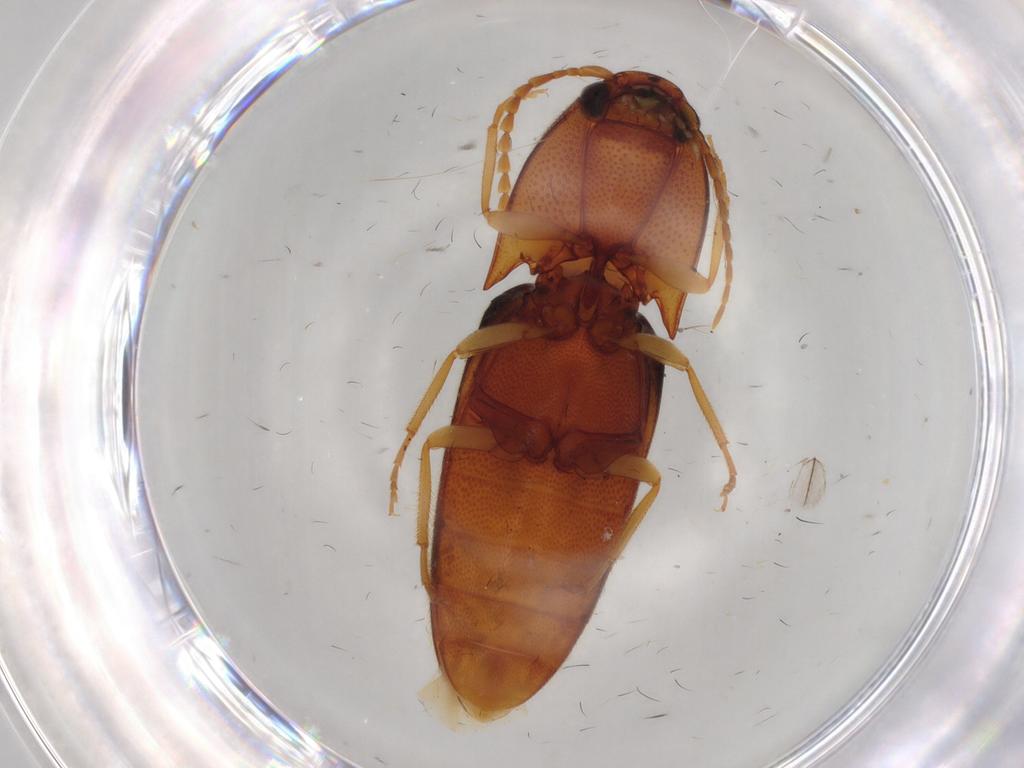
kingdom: Animalia
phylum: Arthropoda
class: Insecta
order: Coleoptera
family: Elateridae
